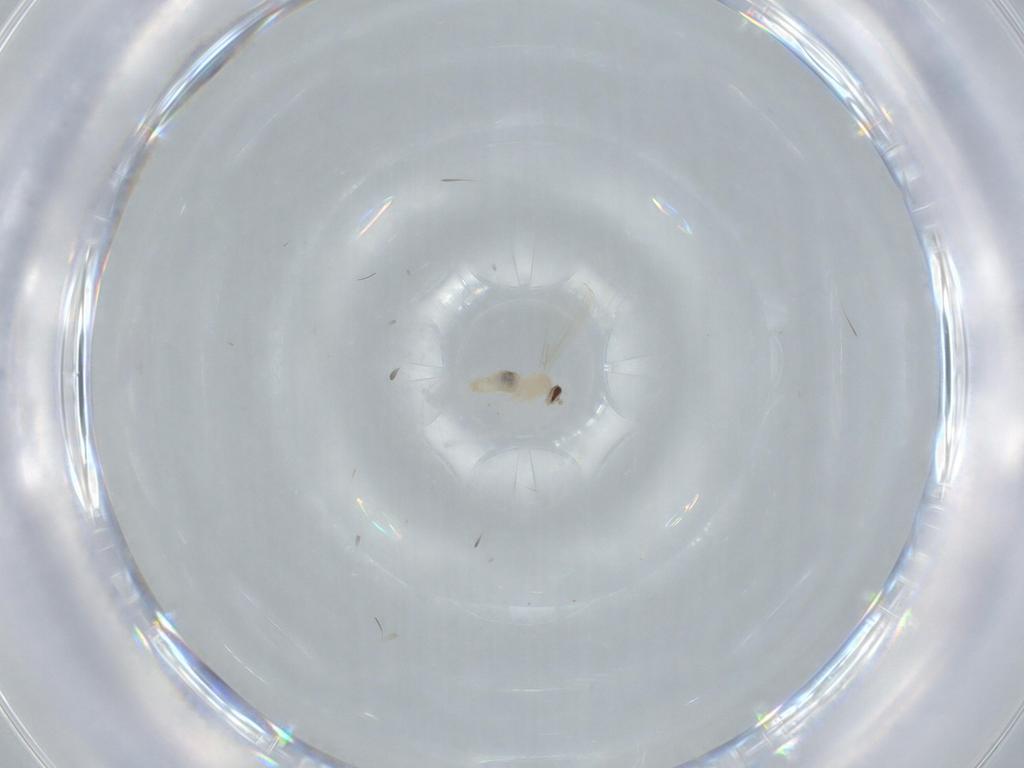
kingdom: Animalia
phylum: Arthropoda
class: Insecta
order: Diptera
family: Cecidomyiidae
